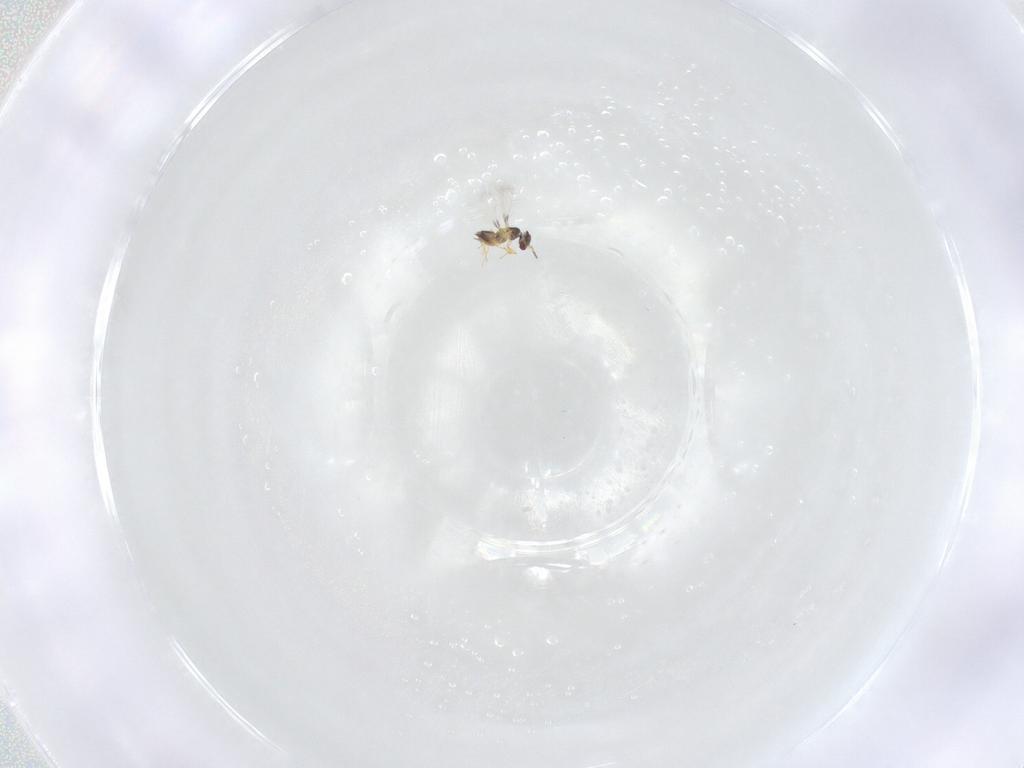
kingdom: Animalia
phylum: Arthropoda
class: Insecta
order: Hymenoptera
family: Mymaridae
